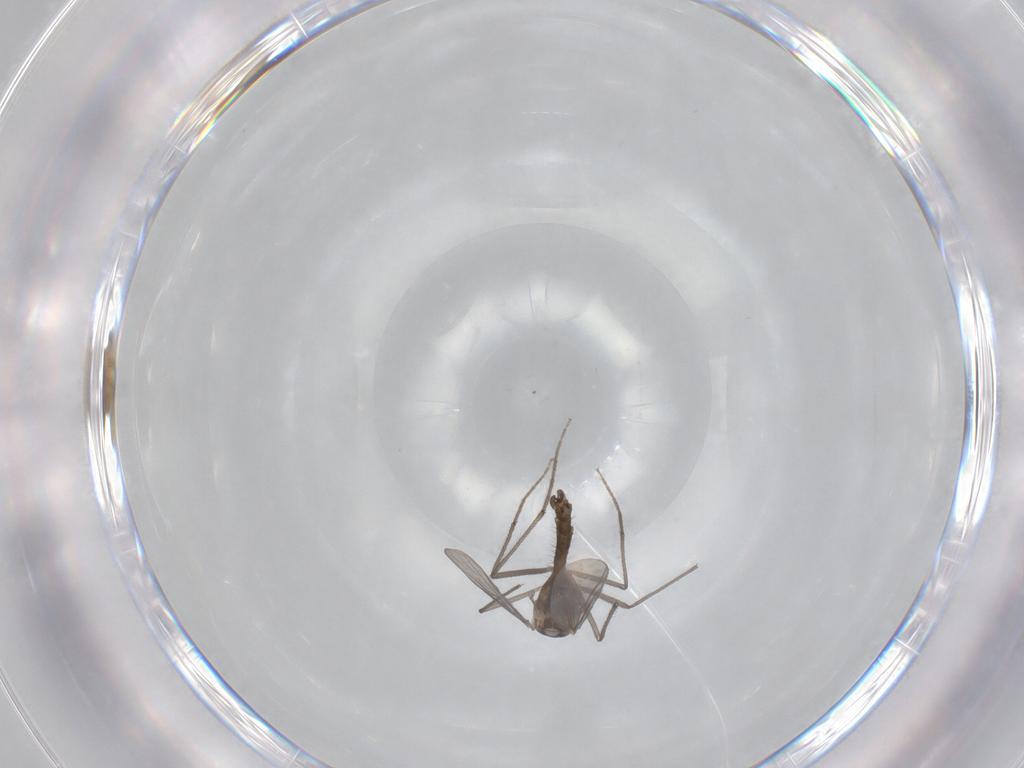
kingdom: Animalia
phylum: Arthropoda
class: Insecta
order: Diptera
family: Chironomidae
